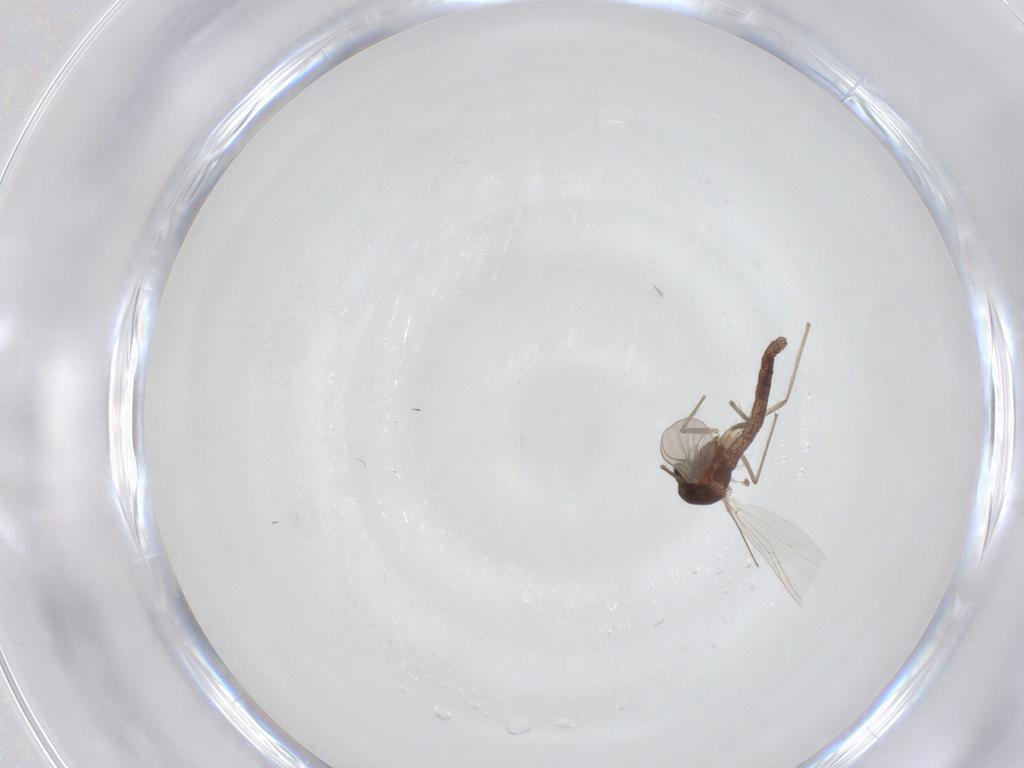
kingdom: Animalia
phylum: Arthropoda
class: Insecta
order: Diptera
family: Chironomidae
